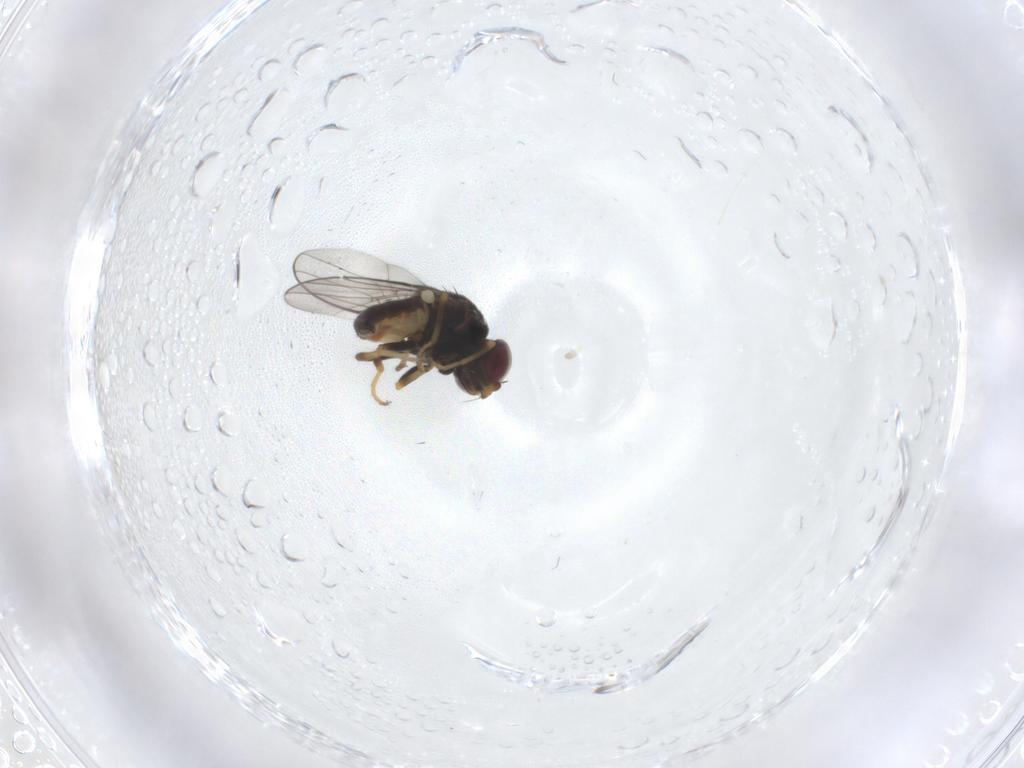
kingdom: Animalia
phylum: Arthropoda
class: Insecta
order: Diptera
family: Chloropidae
